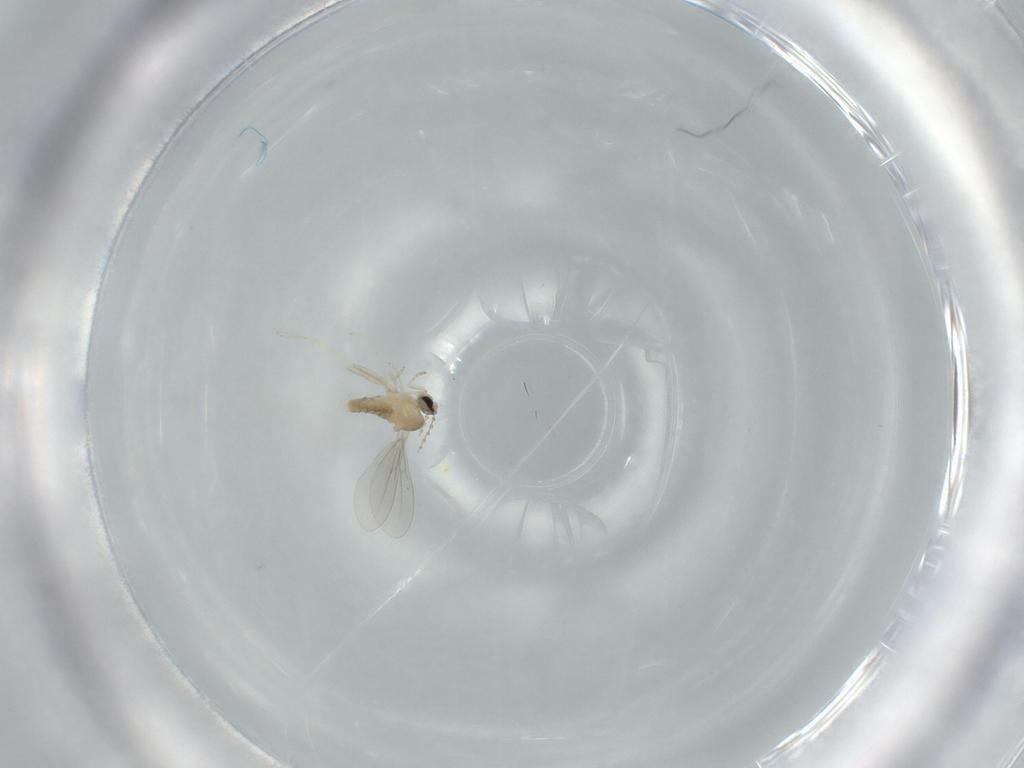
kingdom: Animalia
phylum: Arthropoda
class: Insecta
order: Diptera
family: Cecidomyiidae
